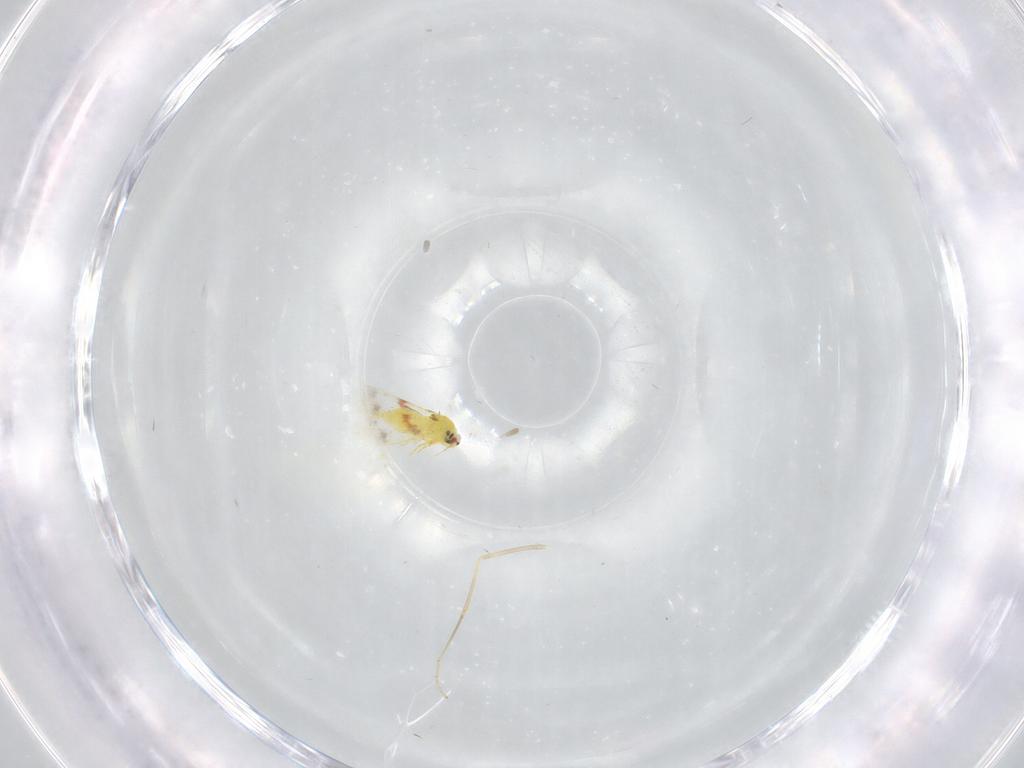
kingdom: Animalia
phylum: Arthropoda
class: Insecta
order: Hemiptera
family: Aleyrodidae
